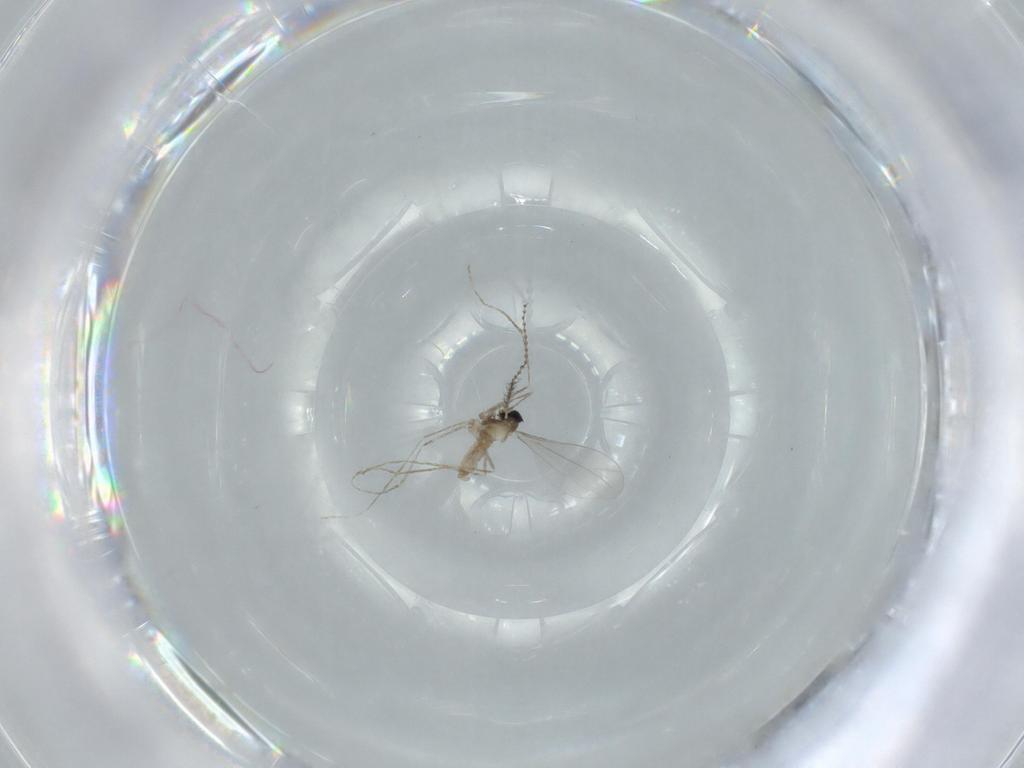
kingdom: Animalia
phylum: Arthropoda
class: Insecta
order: Diptera
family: Cecidomyiidae
